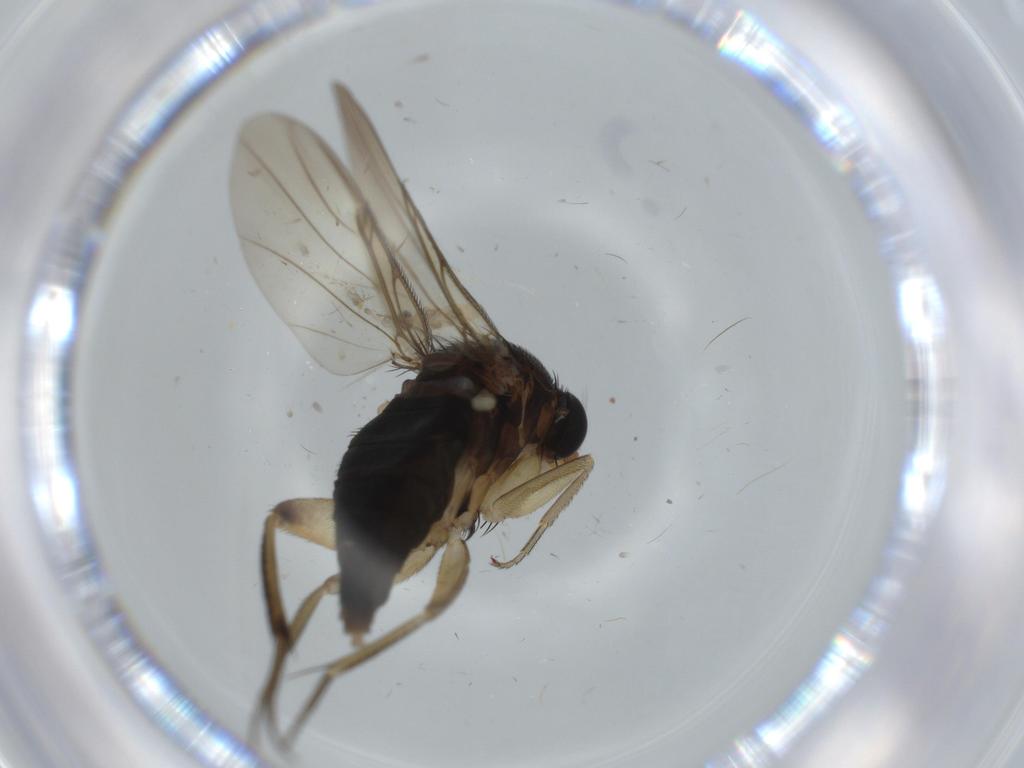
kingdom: Animalia
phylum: Arthropoda
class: Insecta
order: Diptera
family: Phoridae
